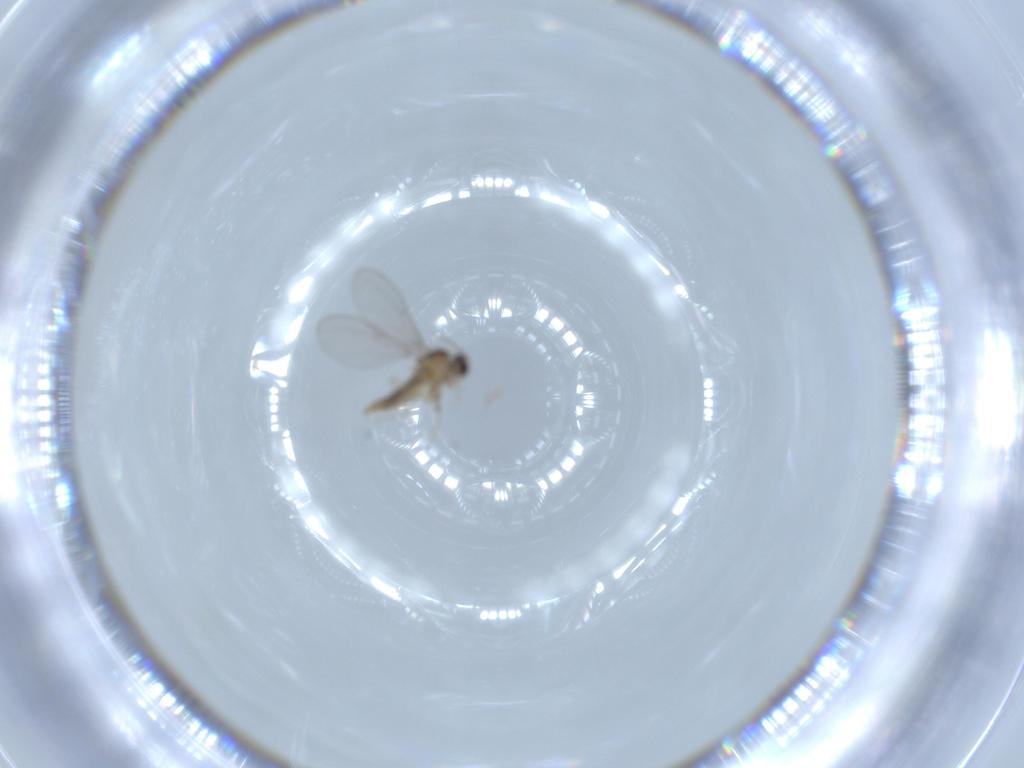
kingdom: Animalia
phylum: Arthropoda
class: Insecta
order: Diptera
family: Cecidomyiidae
